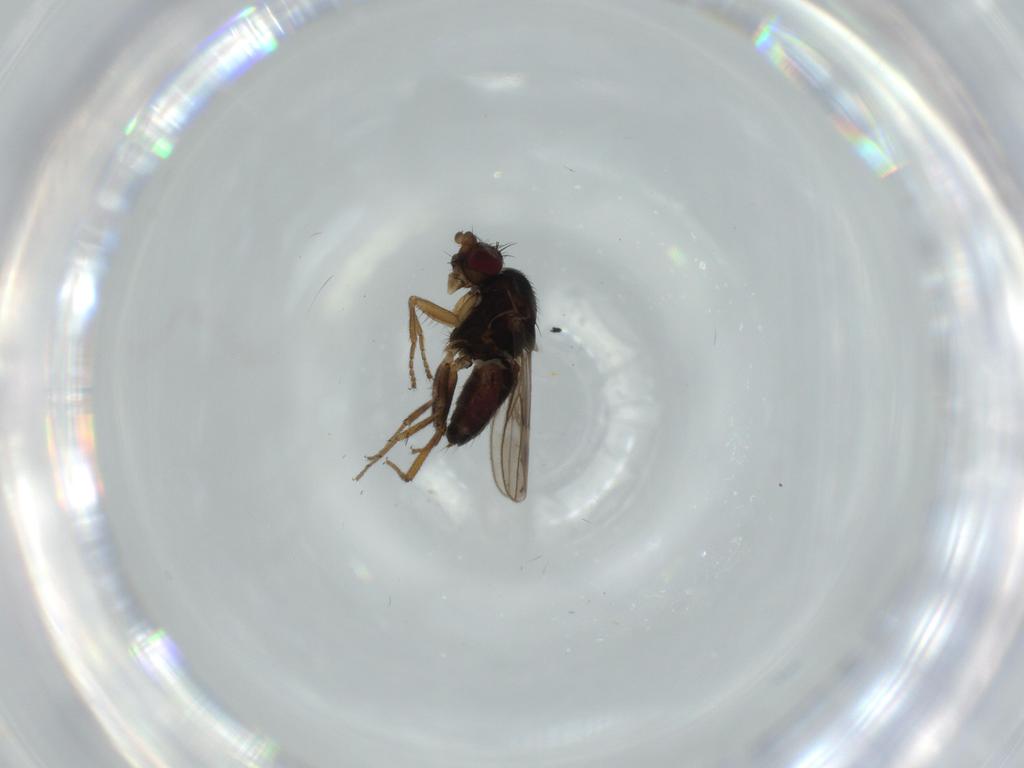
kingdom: Animalia
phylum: Arthropoda
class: Insecta
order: Diptera
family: Sphaeroceridae
